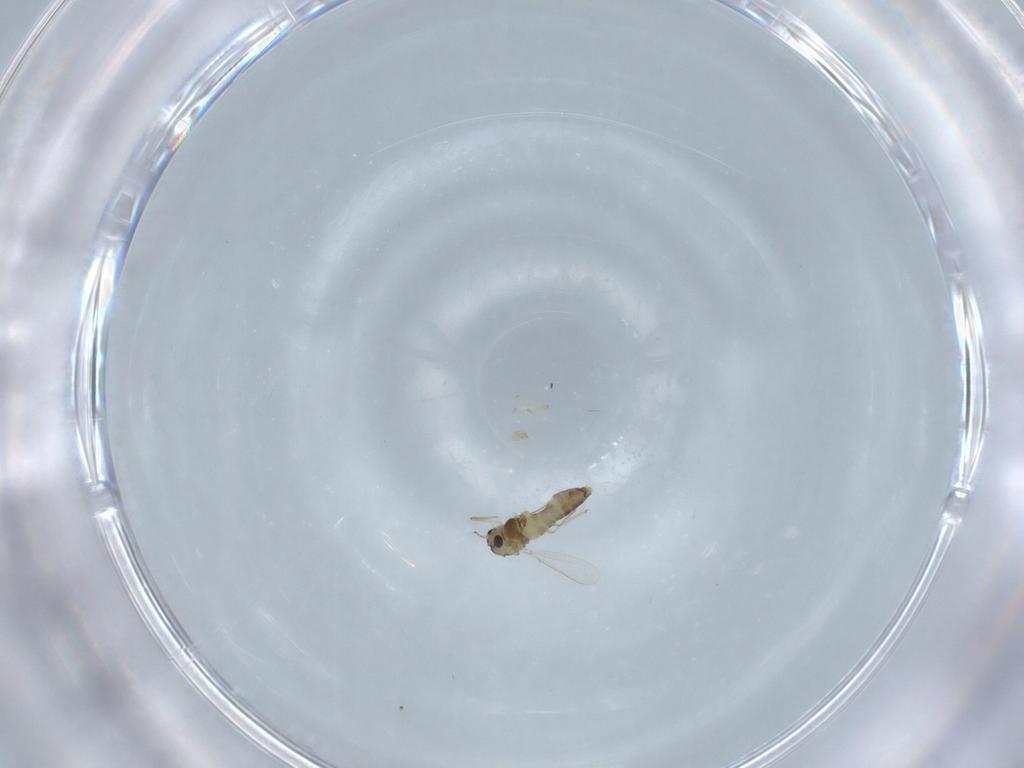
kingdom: Animalia
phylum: Arthropoda
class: Insecta
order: Diptera
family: Chironomidae
